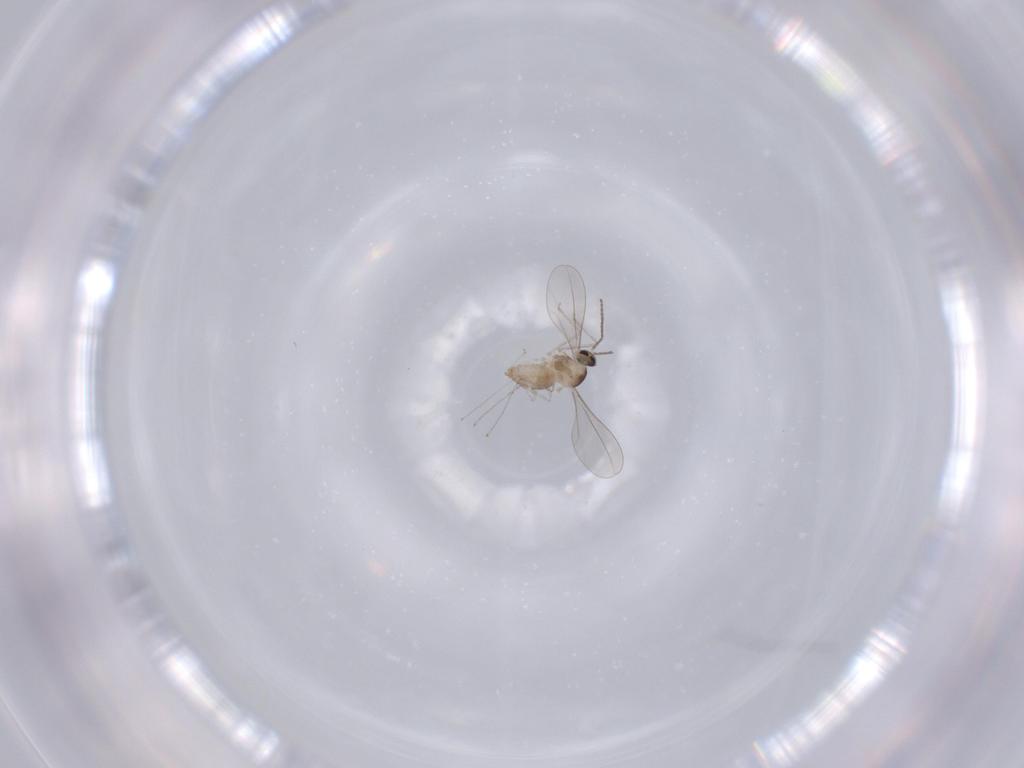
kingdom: Animalia
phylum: Arthropoda
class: Insecta
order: Diptera
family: Cecidomyiidae
